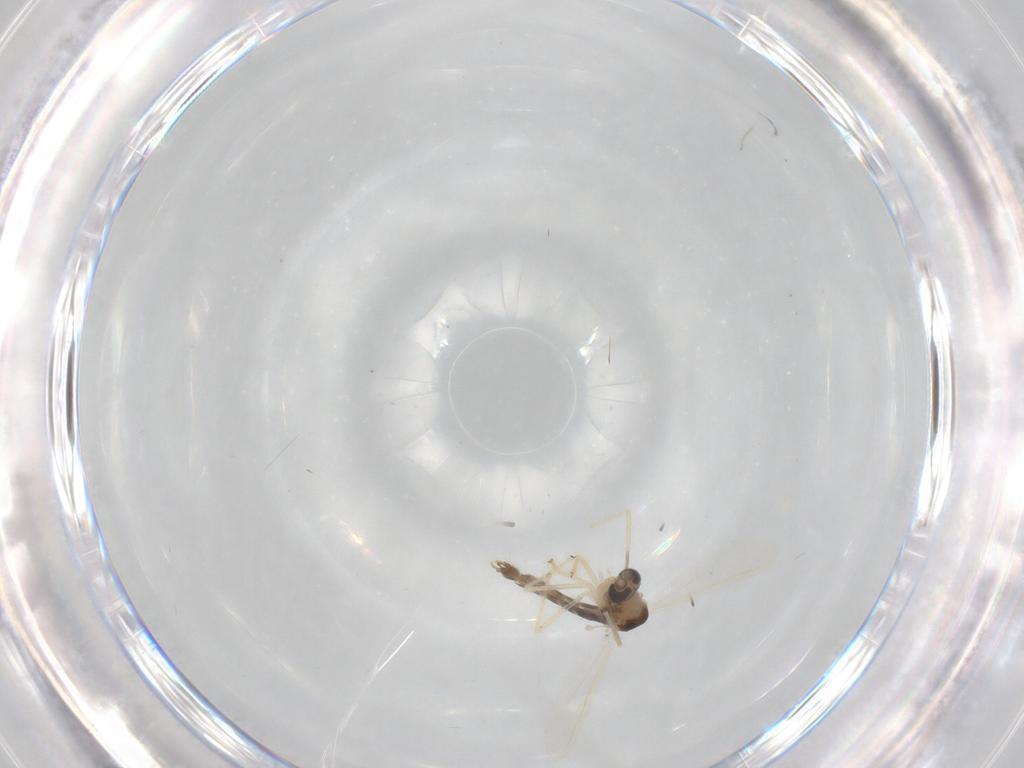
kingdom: Animalia
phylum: Arthropoda
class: Insecta
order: Diptera
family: Chironomidae
